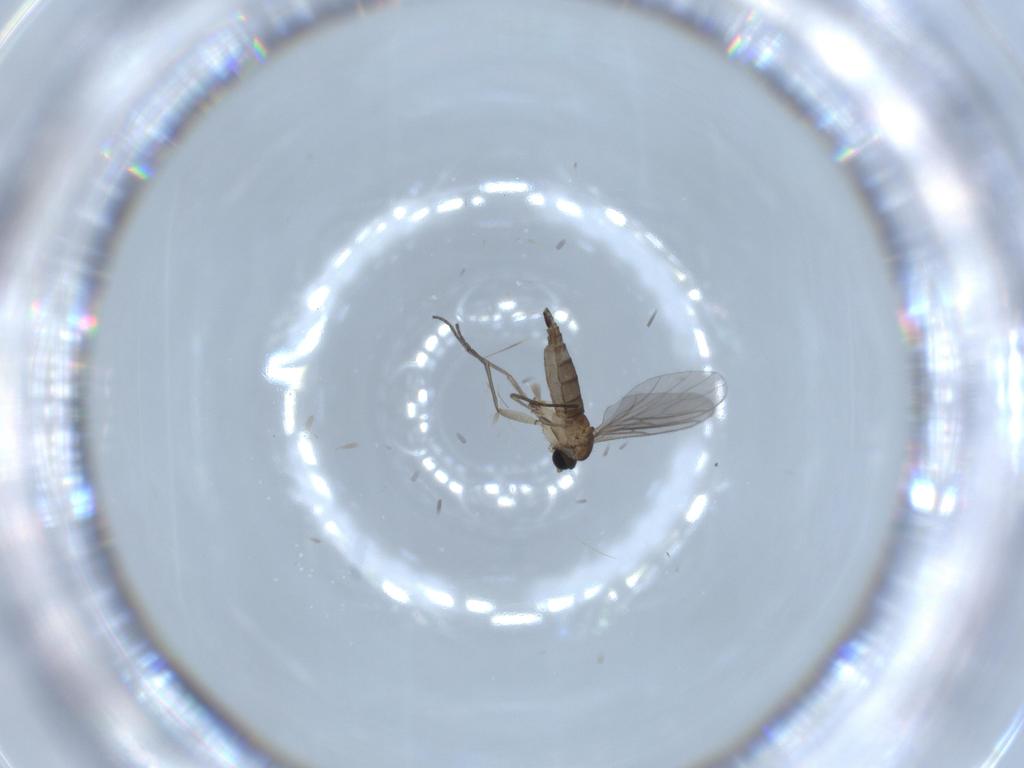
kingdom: Animalia
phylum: Arthropoda
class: Insecta
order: Diptera
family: Sciaridae
